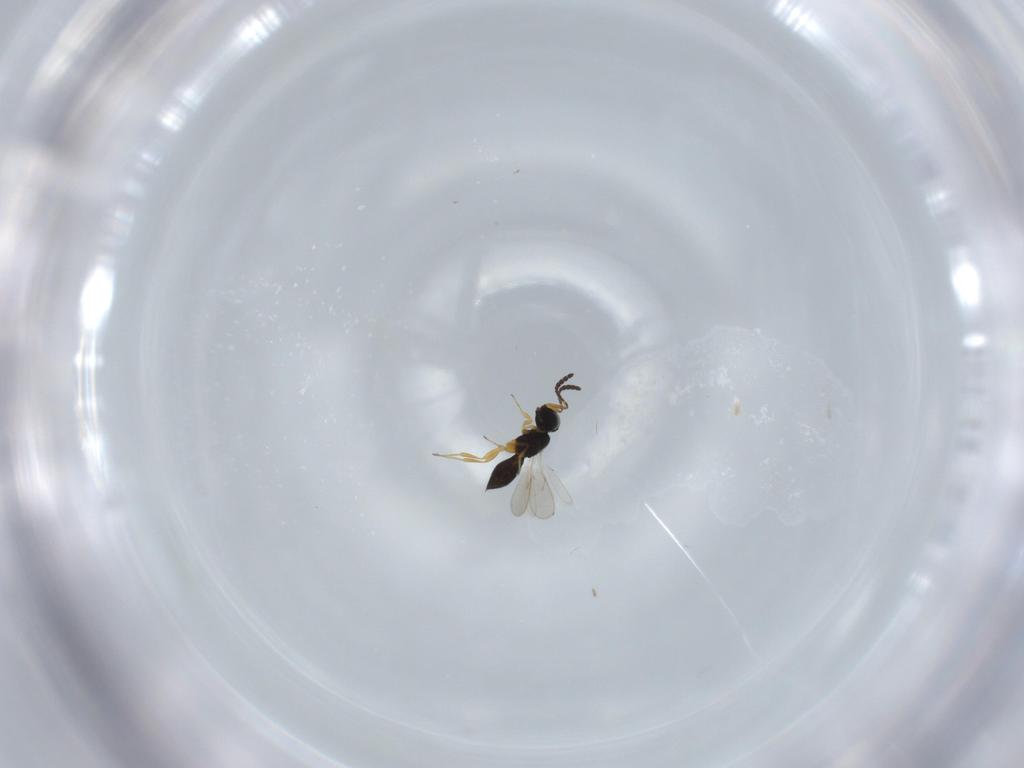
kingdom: Animalia
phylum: Arthropoda
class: Insecta
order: Hymenoptera
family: Scelionidae
